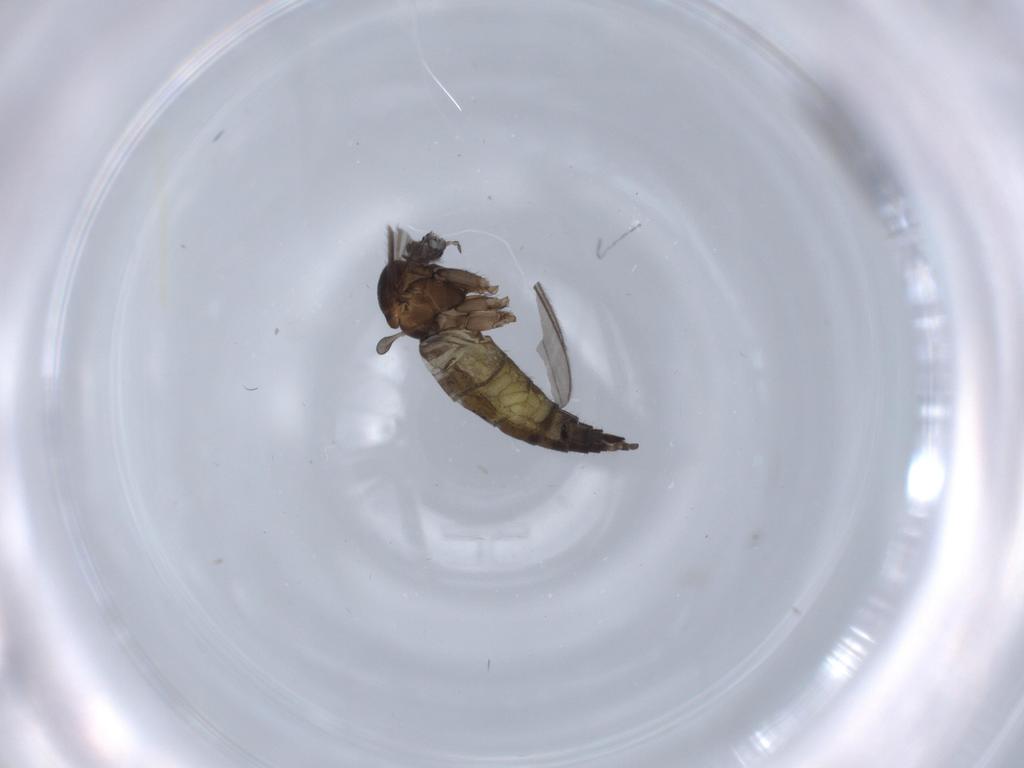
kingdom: Animalia
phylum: Arthropoda
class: Insecta
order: Diptera
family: Sciaridae
